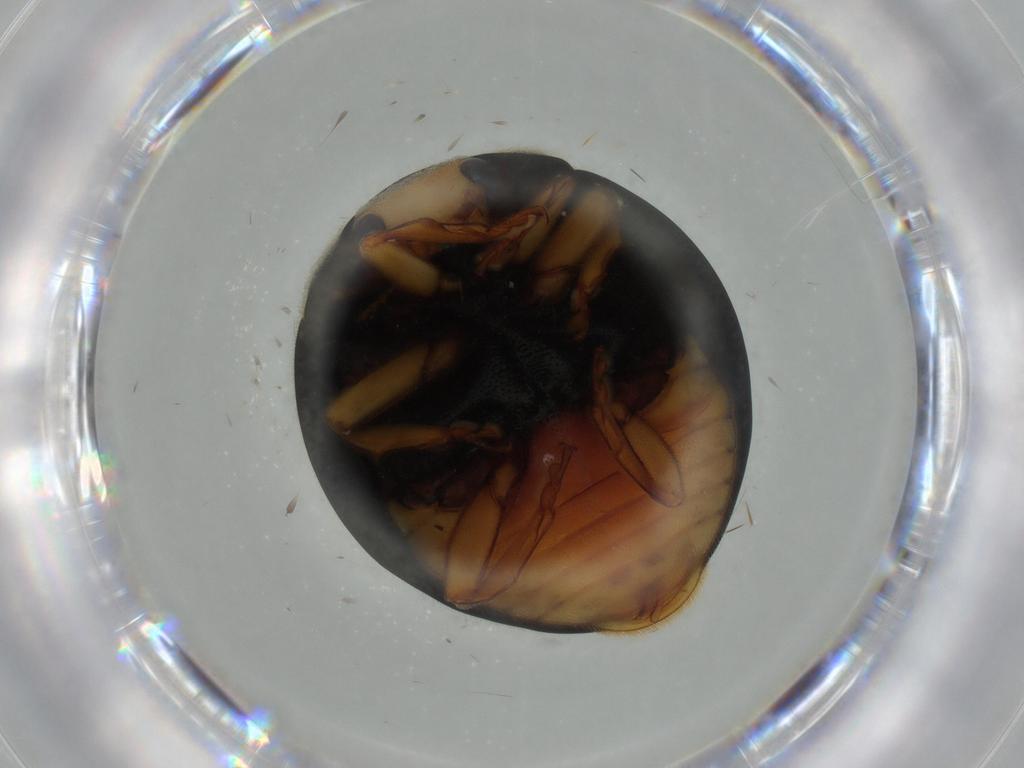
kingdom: Animalia
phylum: Arthropoda
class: Insecta
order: Coleoptera
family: Coccinellidae
